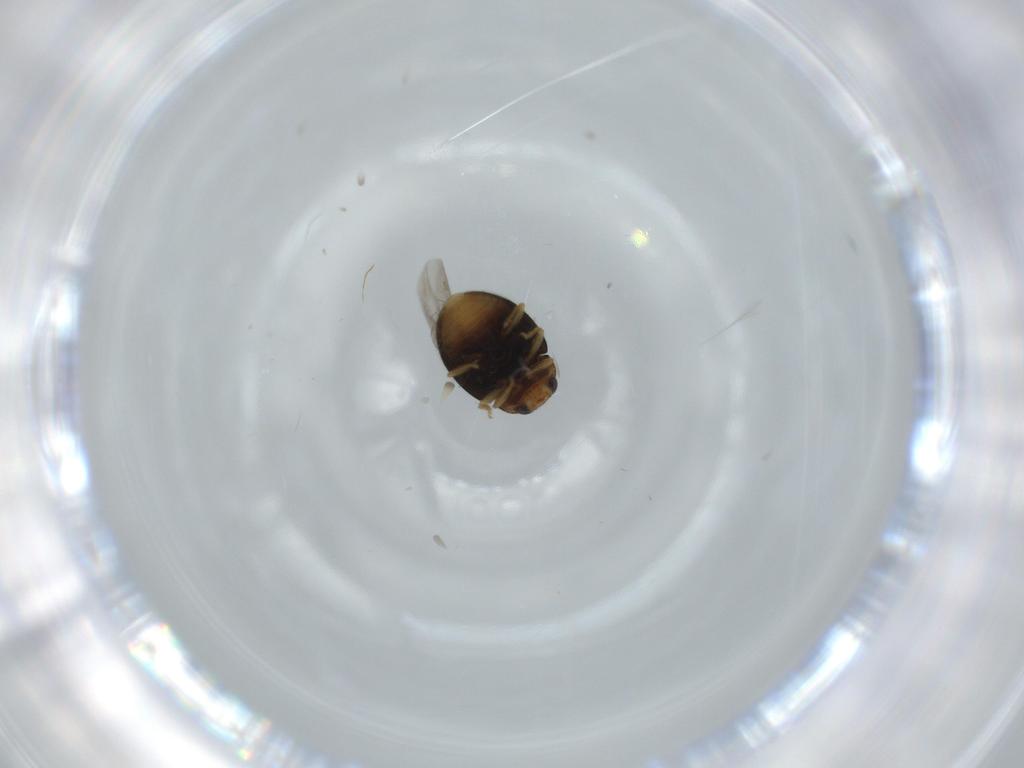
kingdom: Animalia
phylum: Arthropoda
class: Insecta
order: Coleoptera
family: Coccinellidae
